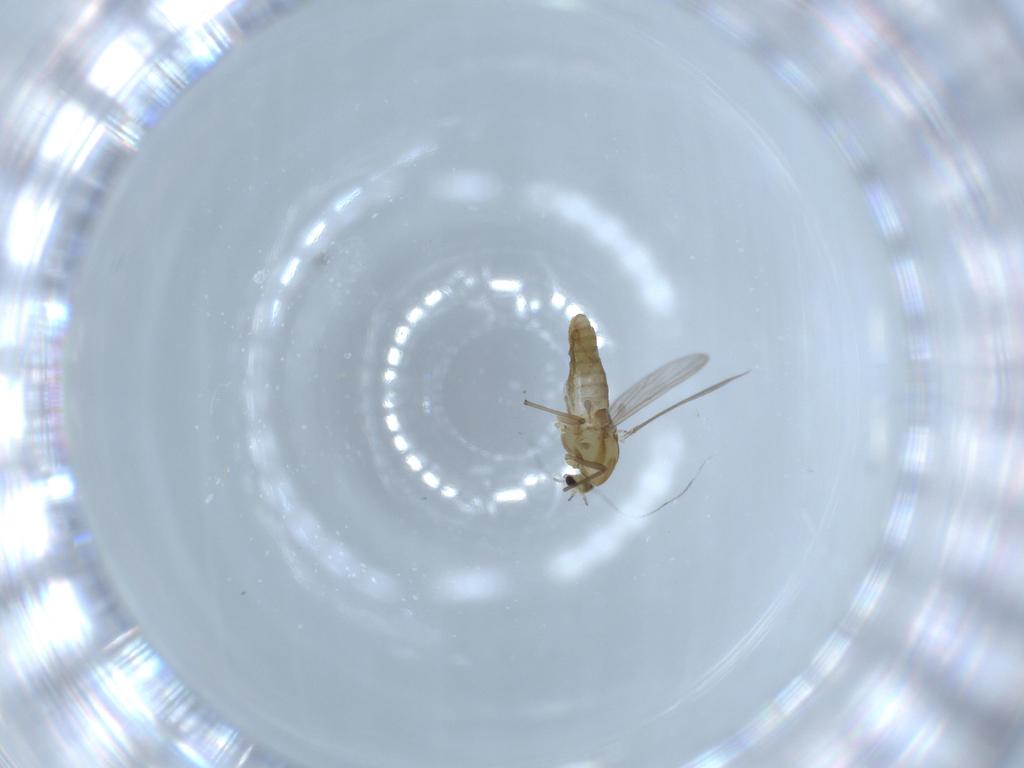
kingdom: Animalia
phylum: Arthropoda
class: Insecta
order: Diptera
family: Chironomidae
